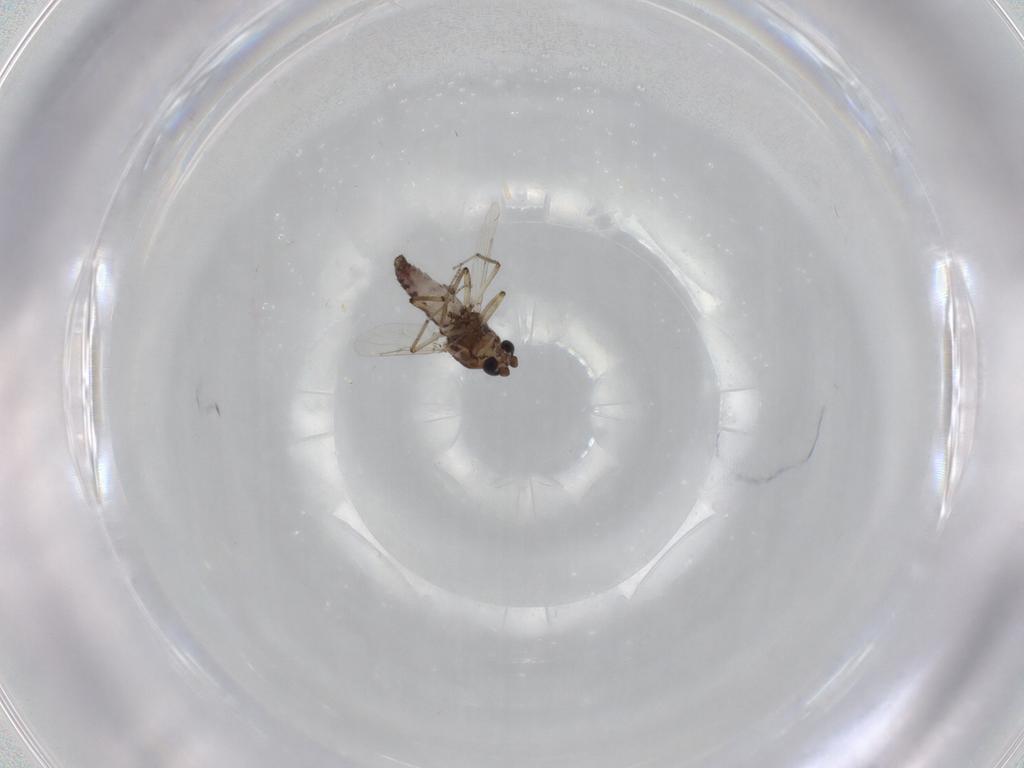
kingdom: Animalia
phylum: Arthropoda
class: Insecta
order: Diptera
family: Ceratopogonidae
